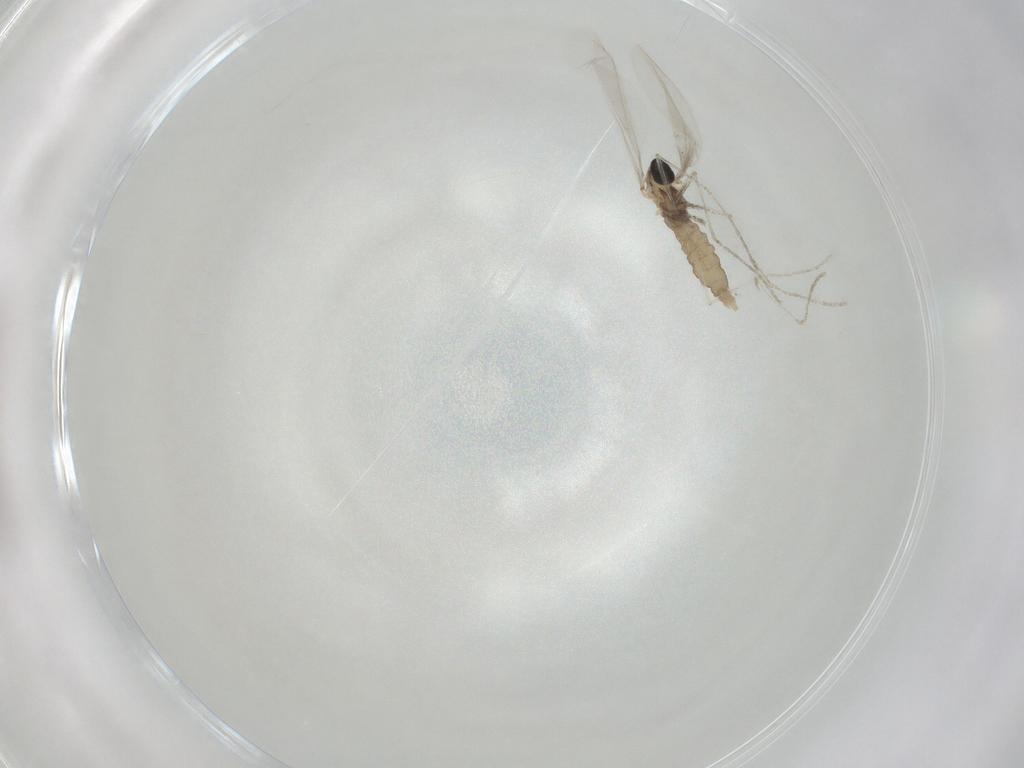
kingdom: Animalia
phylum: Arthropoda
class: Insecta
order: Diptera
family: Cecidomyiidae
